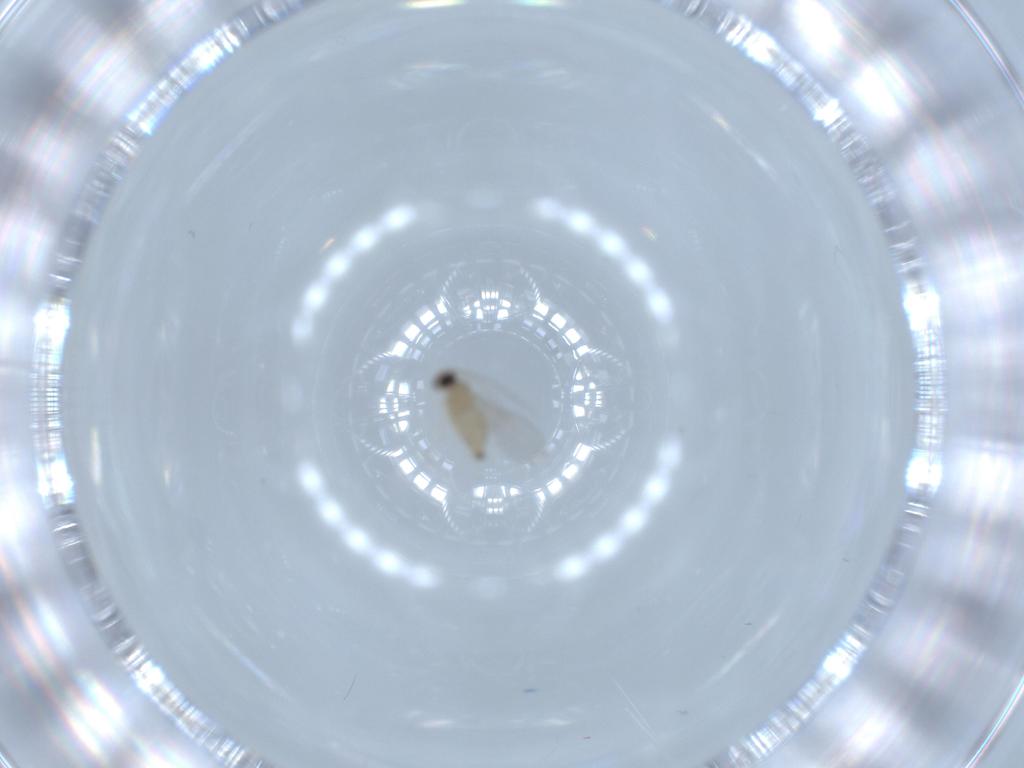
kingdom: Animalia
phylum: Arthropoda
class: Insecta
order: Diptera
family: Cecidomyiidae
